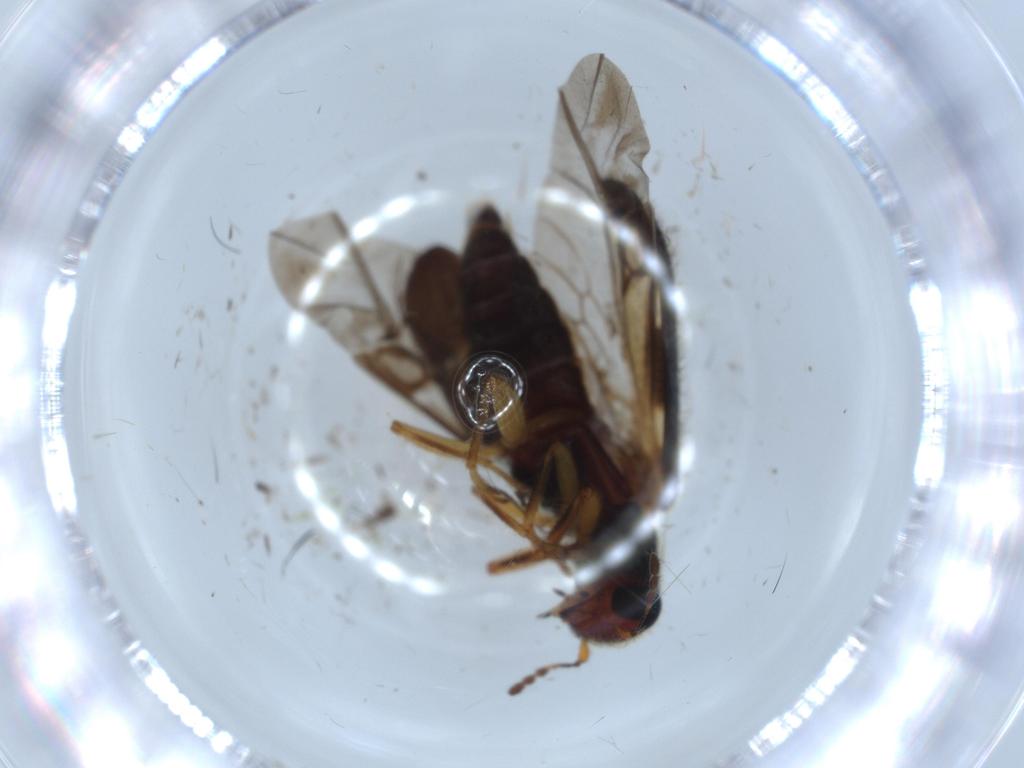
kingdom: Animalia
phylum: Arthropoda
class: Insecta
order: Coleoptera
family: Cleridae
